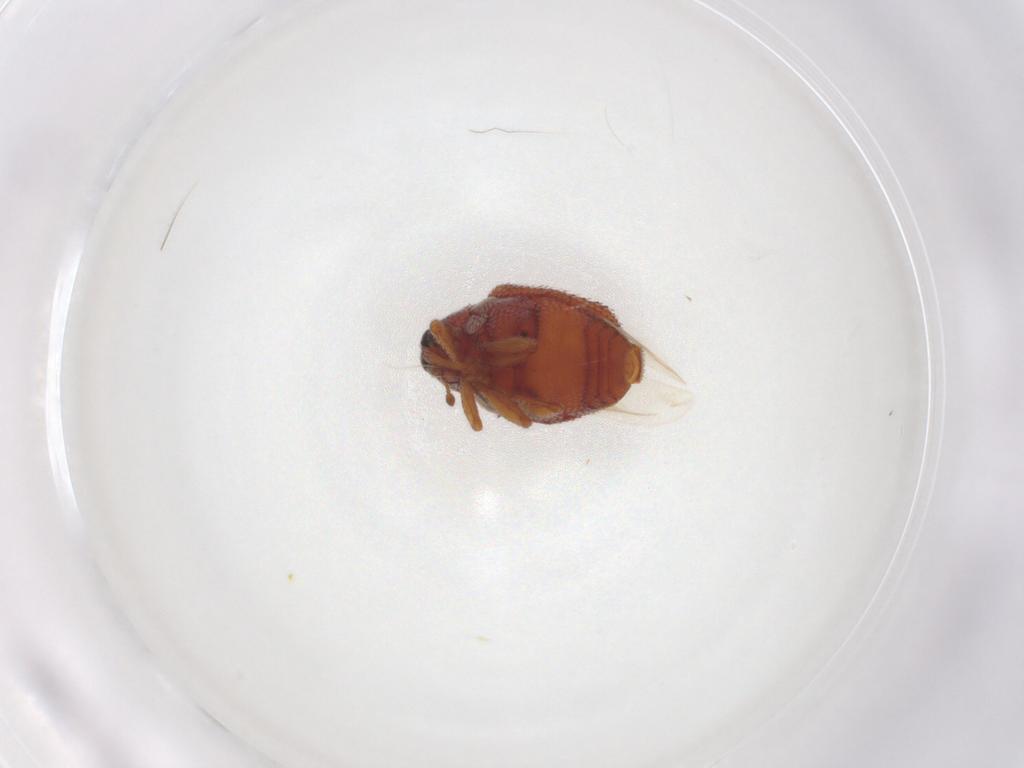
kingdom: Animalia
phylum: Arthropoda
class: Insecta
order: Coleoptera
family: Curculionidae
